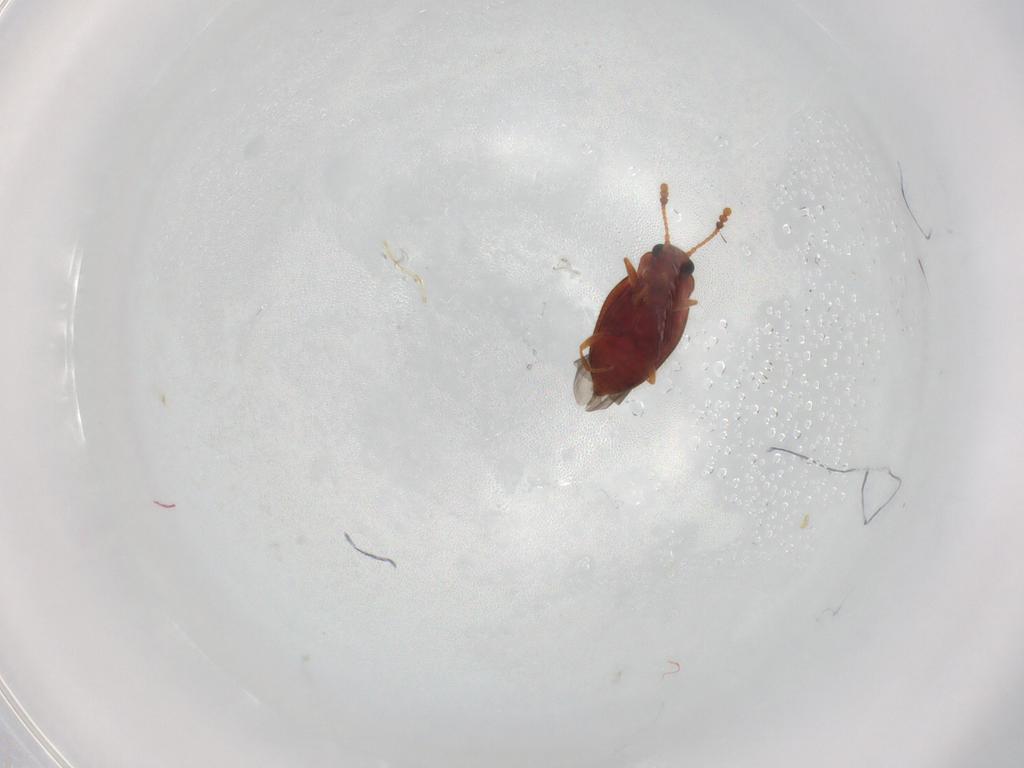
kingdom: Animalia
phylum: Arthropoda
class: Insecta
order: Coleoptera
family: Erotylidae
